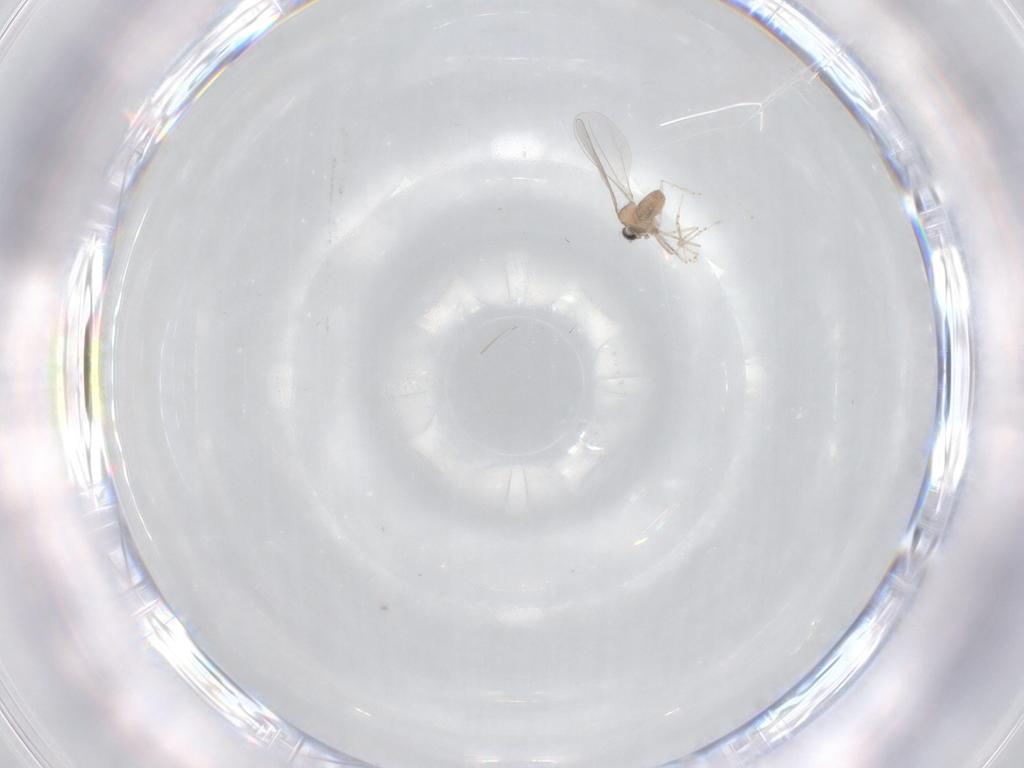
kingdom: Animalia
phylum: Arthropoda
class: Insecta
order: Diptera
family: Cecidomyiidae
